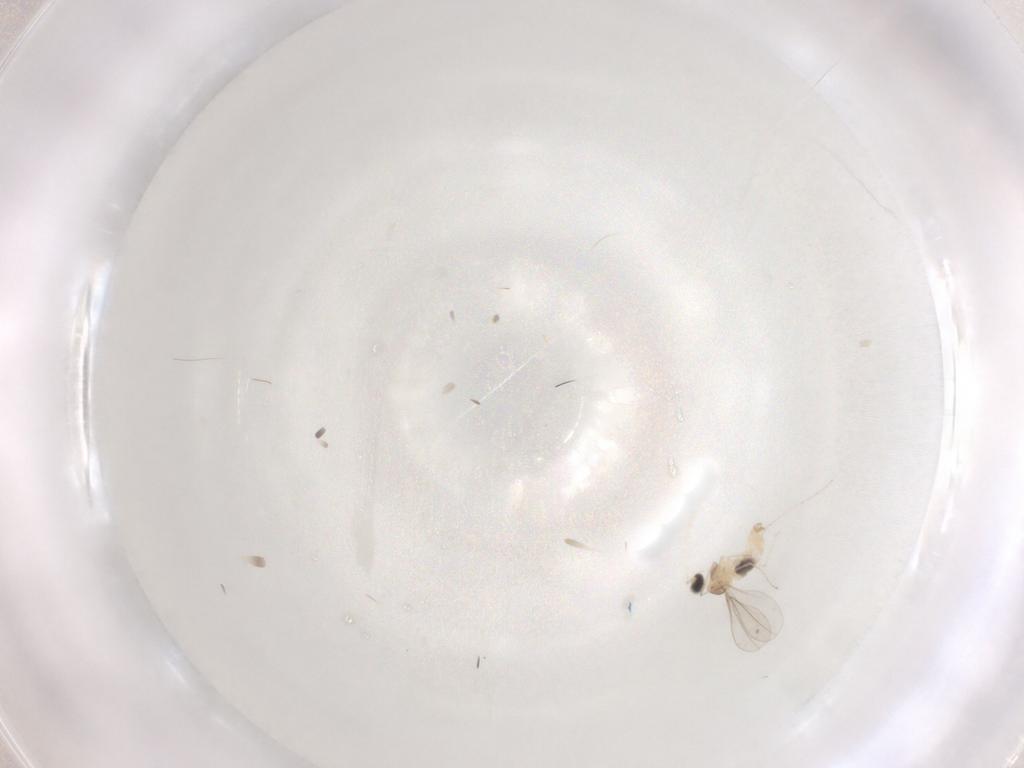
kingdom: Animalia
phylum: Arthropoda
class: Insecta
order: Diptera
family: Cecidomyiidae
